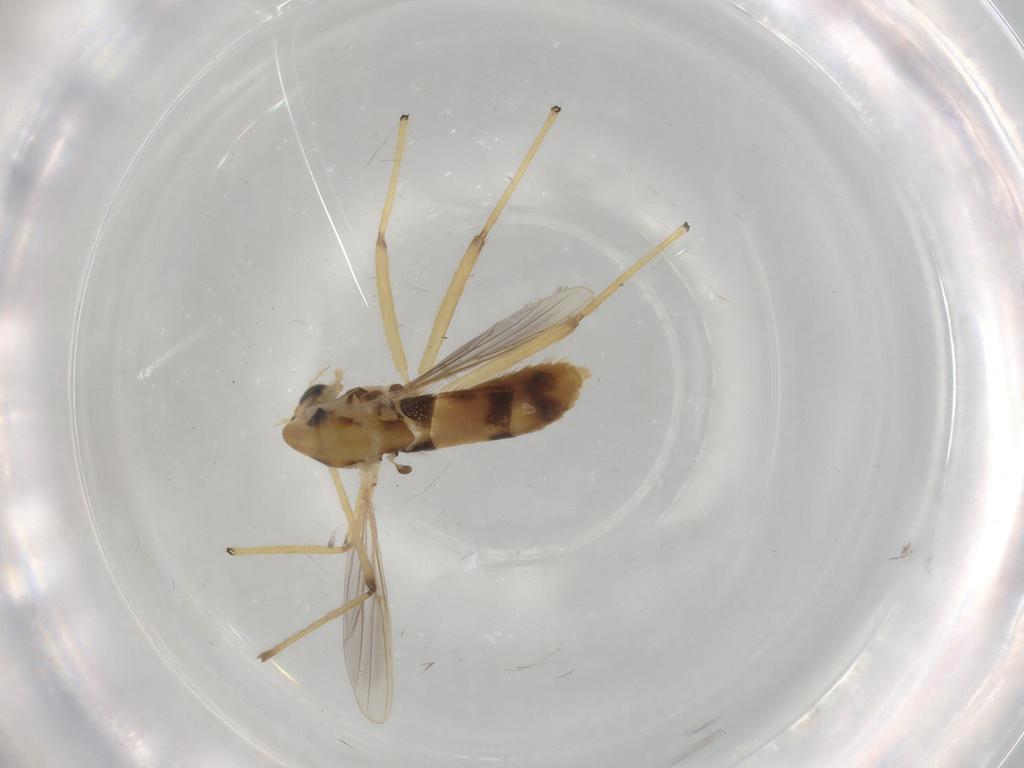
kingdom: Animalia
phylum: Arthropoda
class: Insecta
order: Diptera
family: Chironomidae
